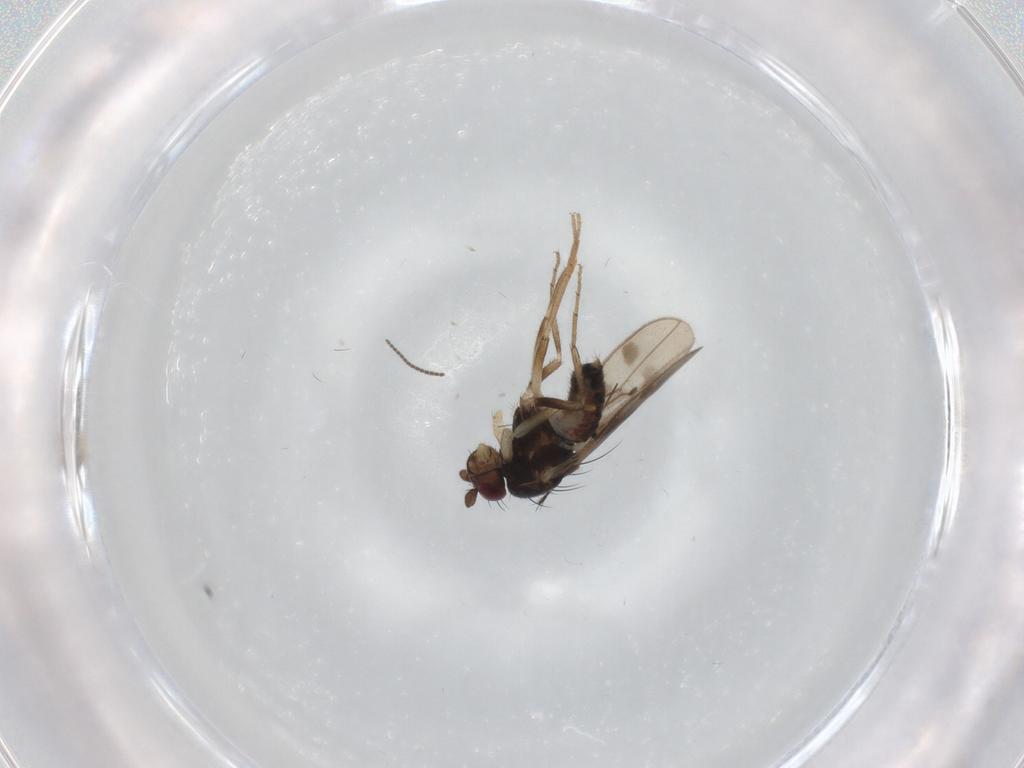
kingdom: Animalia
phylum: Arthropoda
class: Insecta
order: Diptera
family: Sphaeroceridae
